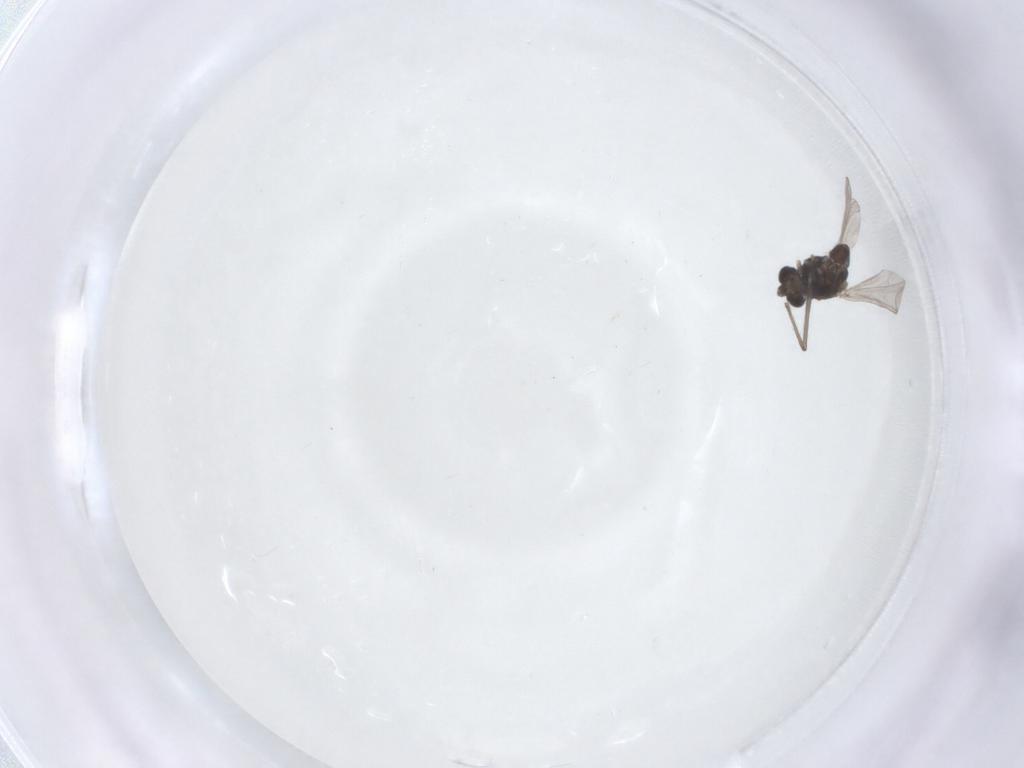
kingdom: Animalia
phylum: Arthropoda
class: Insecta
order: Diptera
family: Chironomidae
